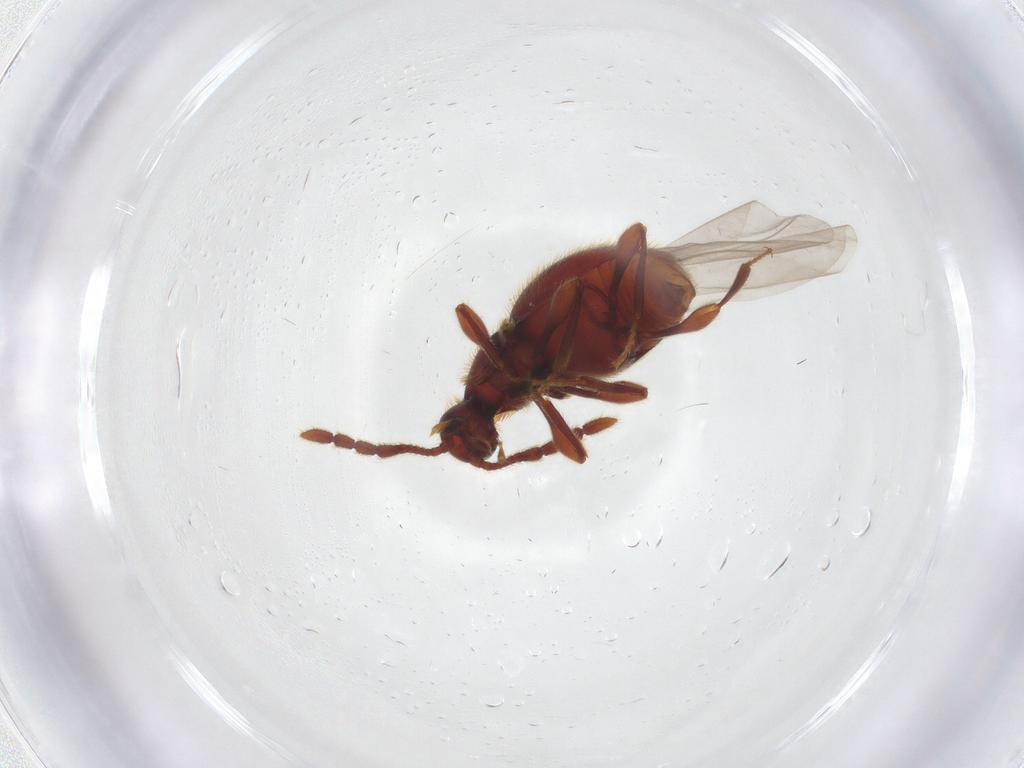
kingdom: Animalia
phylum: Arthropoda
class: Insecta
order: Coleoptera
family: Staphylinidae
